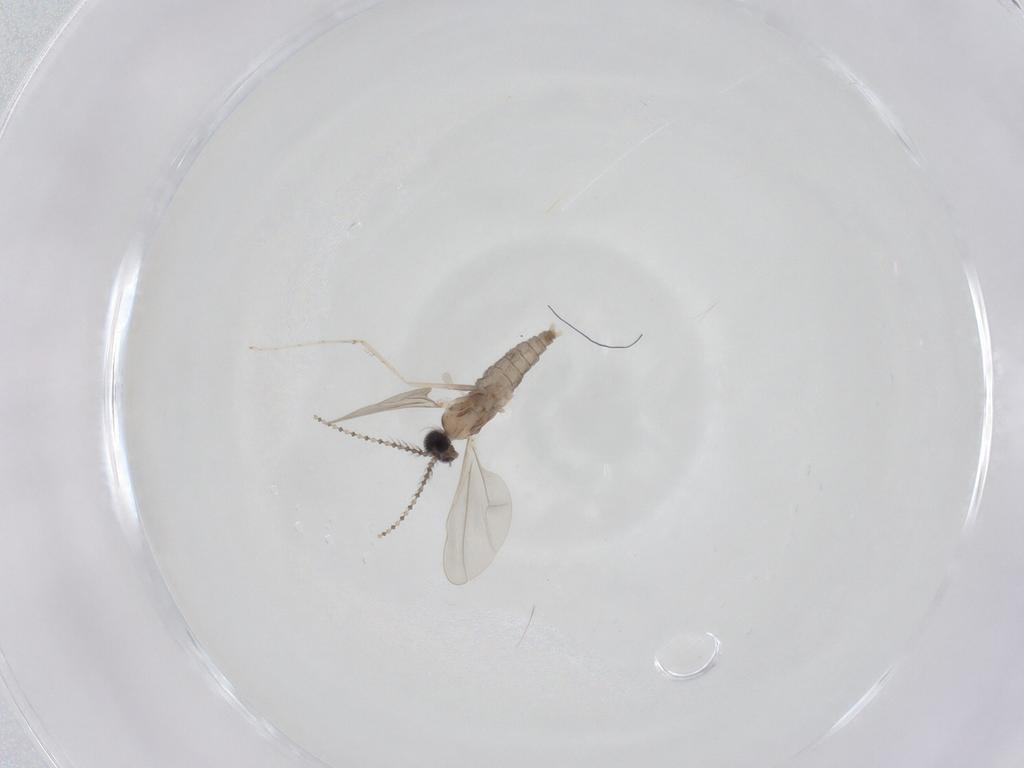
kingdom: Animalia
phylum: Arthropoda
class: Insecta
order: Diptera
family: Cecidomyiidae
